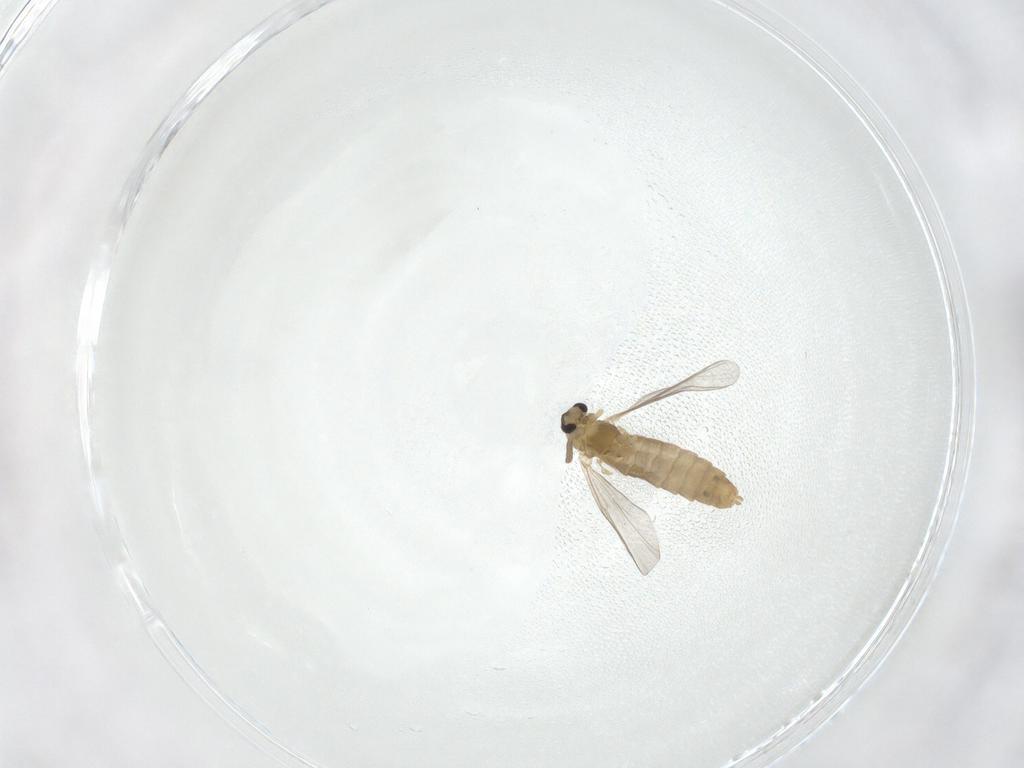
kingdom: Animalia
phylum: Arthropoda
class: Insecta
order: Diptera
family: Chironomidae
